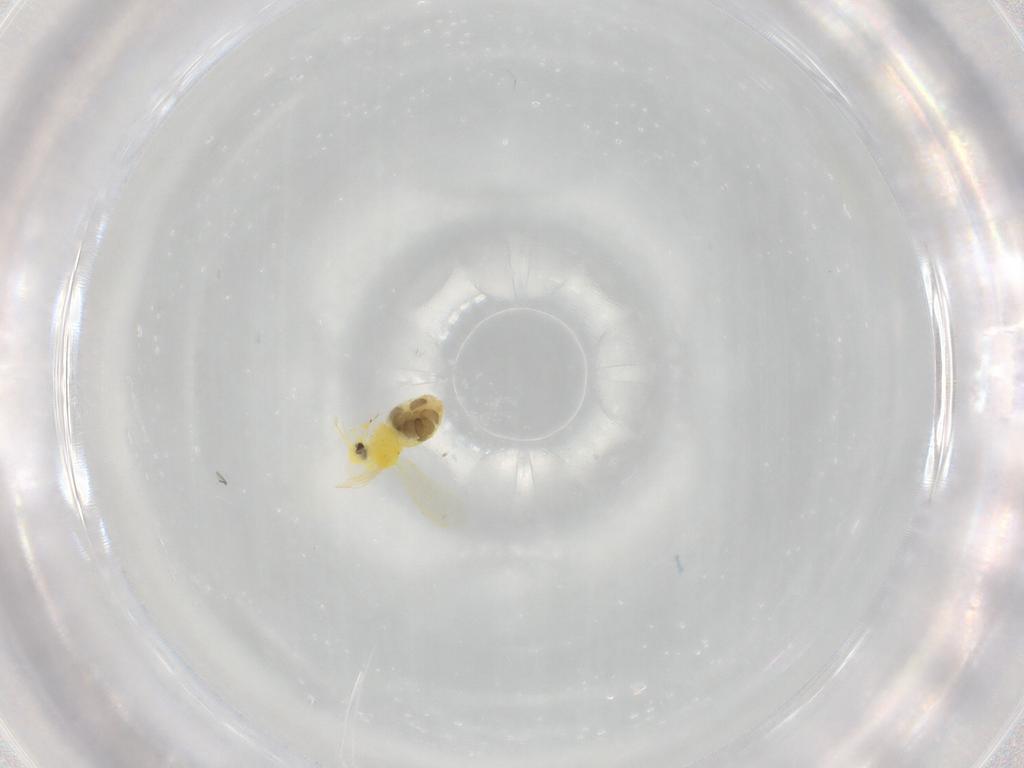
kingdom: Animalia
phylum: Arthropoda
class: Insecta
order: Hemiptera
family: Aleyrodidae
